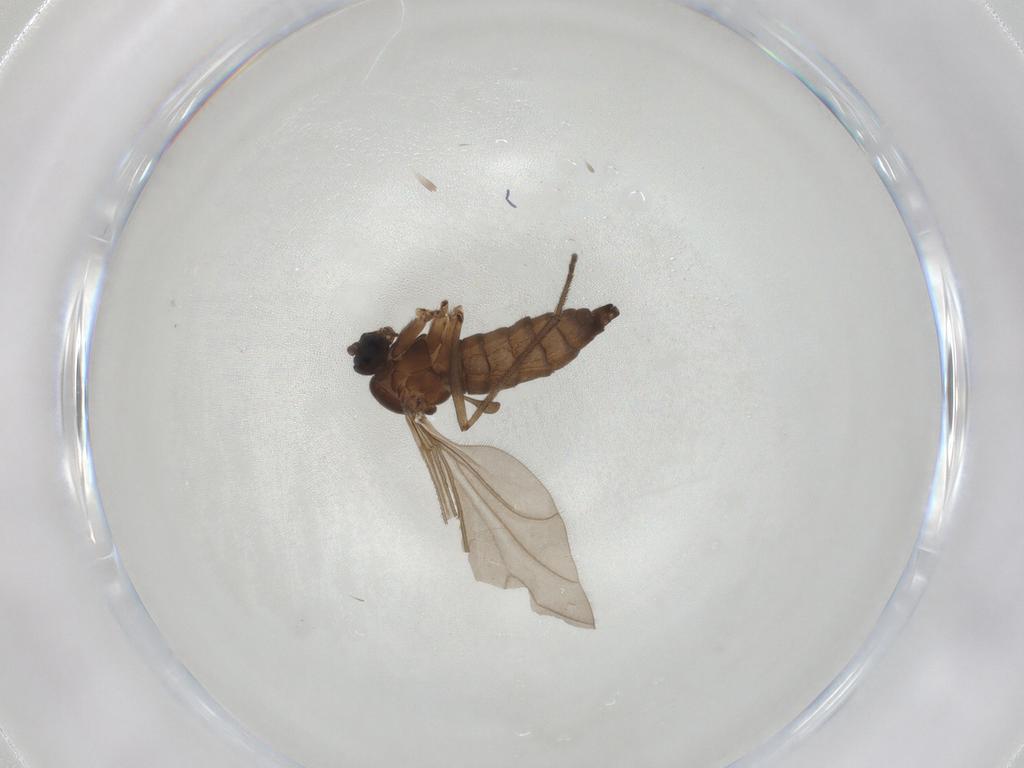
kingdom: Animalia
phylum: Arthropoda
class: Insecta
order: Diptera
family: Sciaridae
